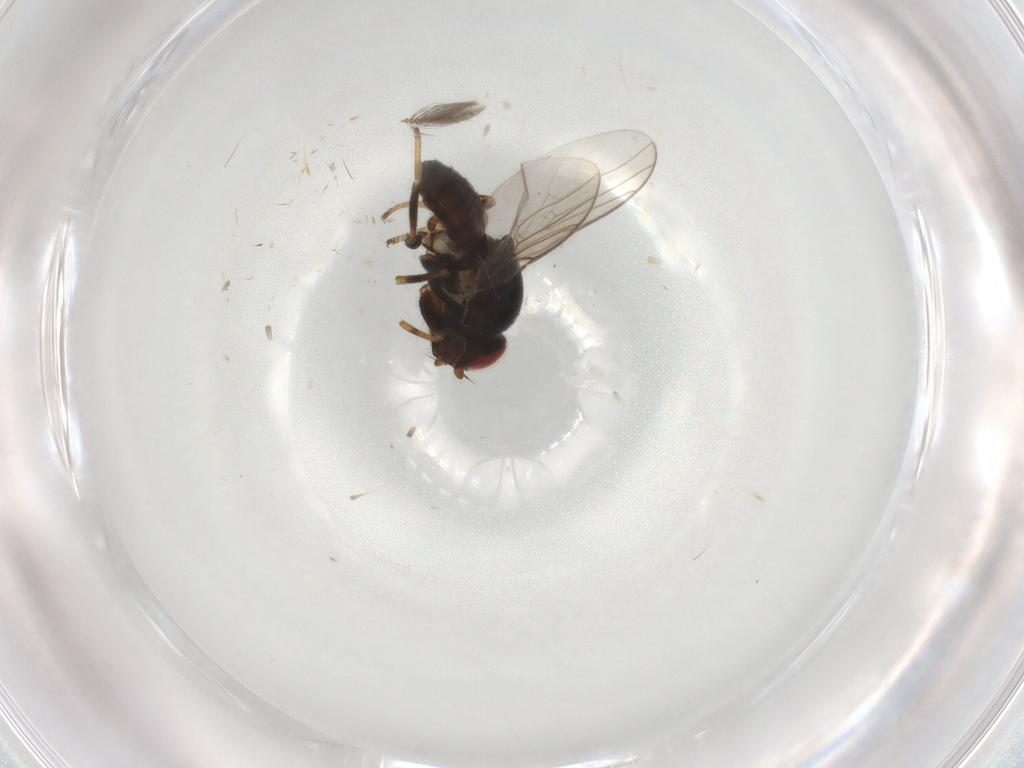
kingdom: Animalia
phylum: Arthropoda
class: Insecta
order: Diptera
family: Chloropidae
